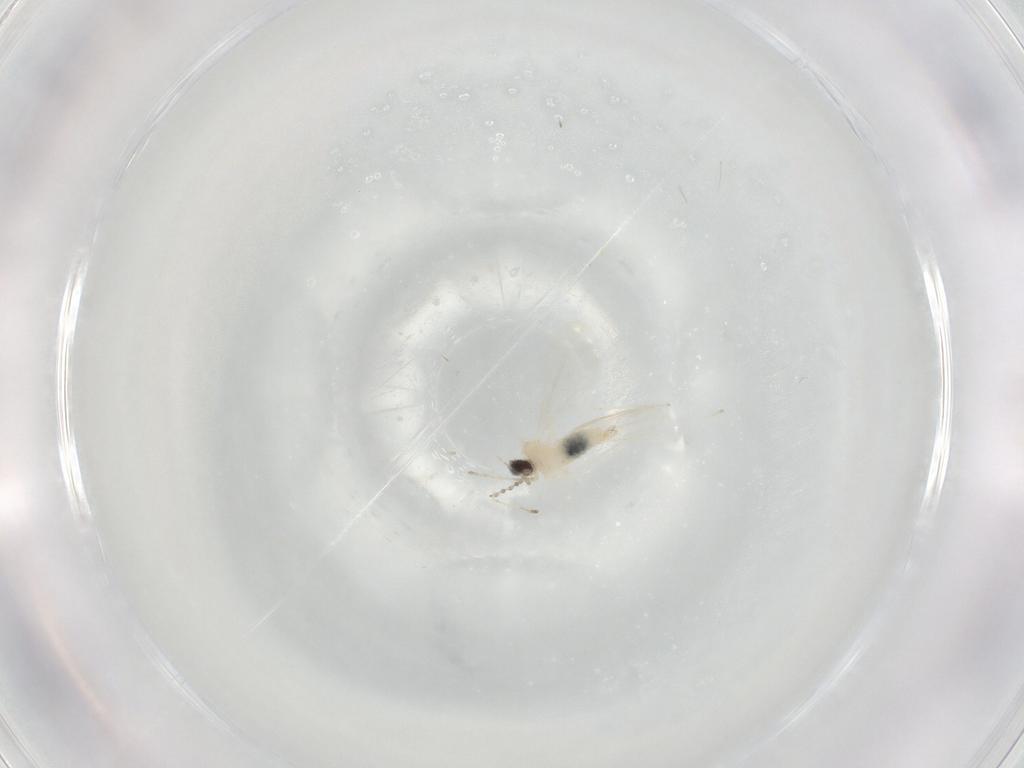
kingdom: Animalia
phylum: Arthropoda
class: Insecta
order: Diptera
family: Cecidomyiidae
